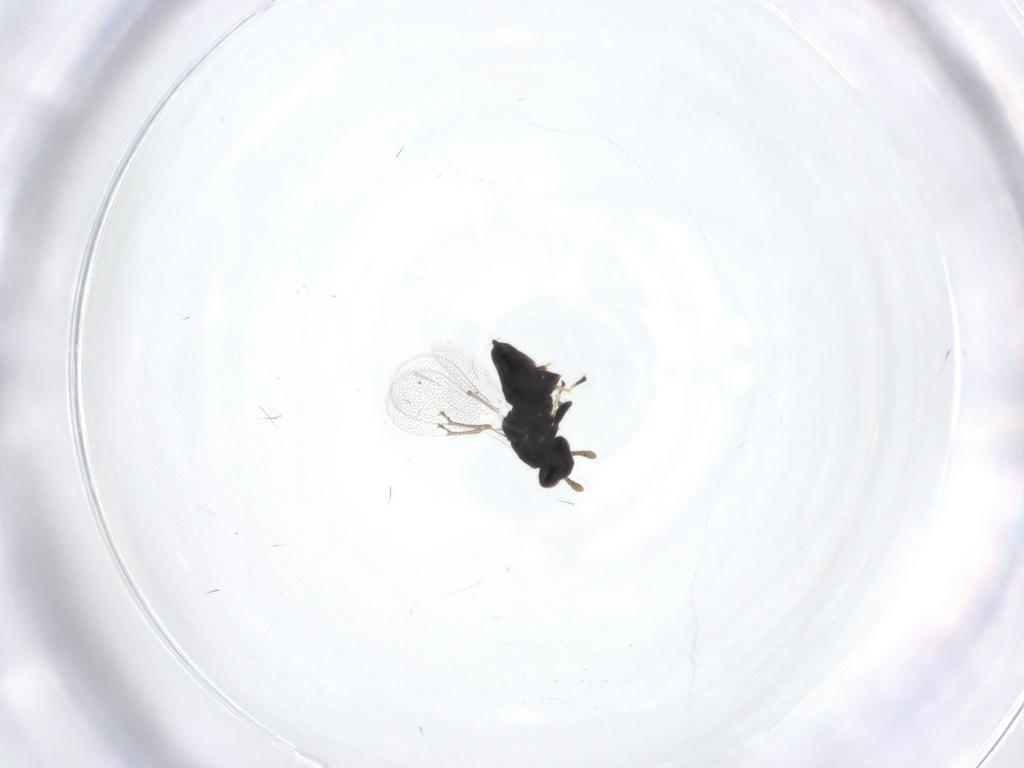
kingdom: Animalia
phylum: Arthropoda
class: Insecta
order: Hymenoptera
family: Eulophidae
